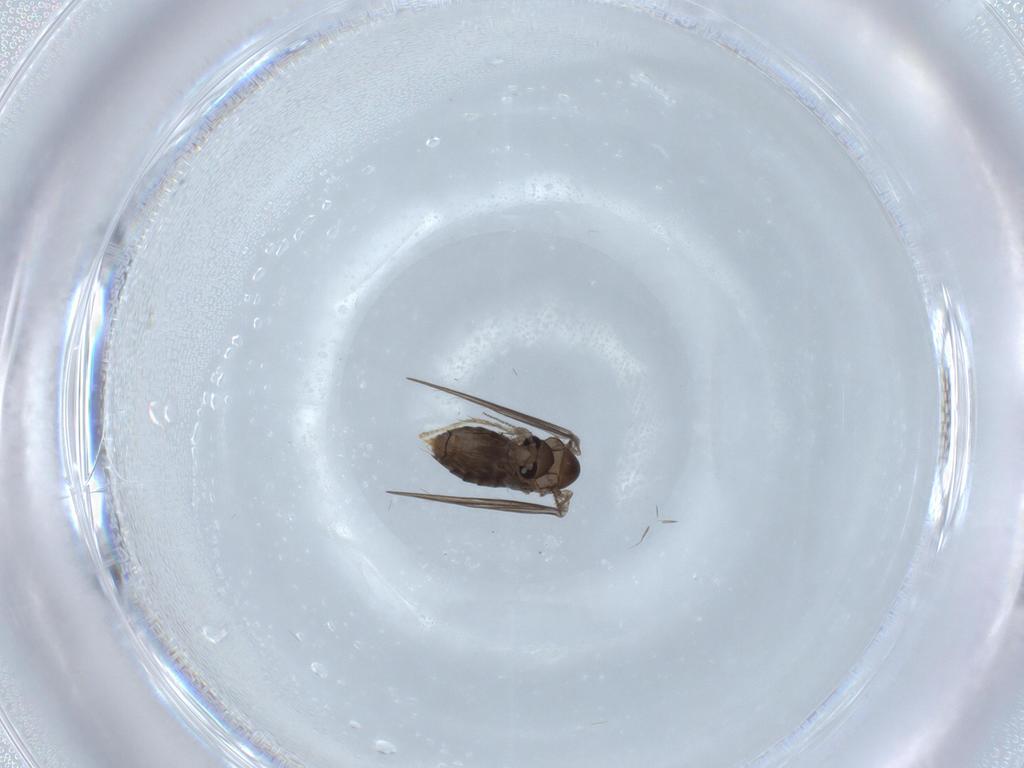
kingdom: Animalia
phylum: Arthropoda
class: Insecta
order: Diptera
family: Psychodidae
